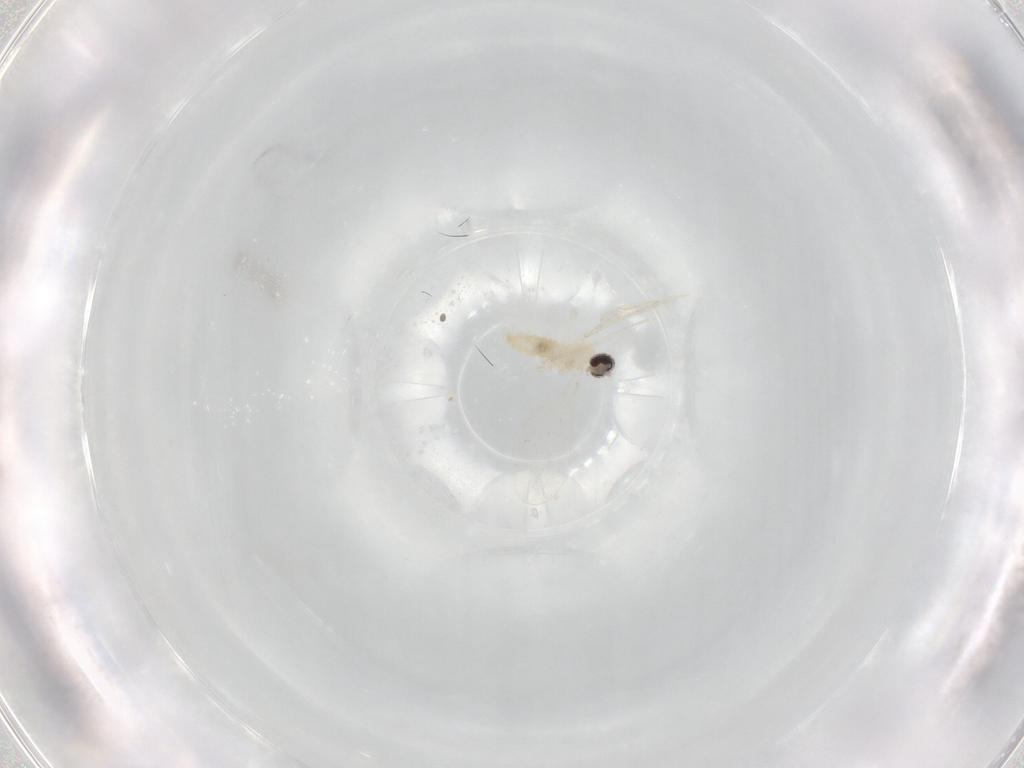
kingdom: Animalia
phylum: Arthropoda
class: Insecta
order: Diptera
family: Cecidomyiidae
